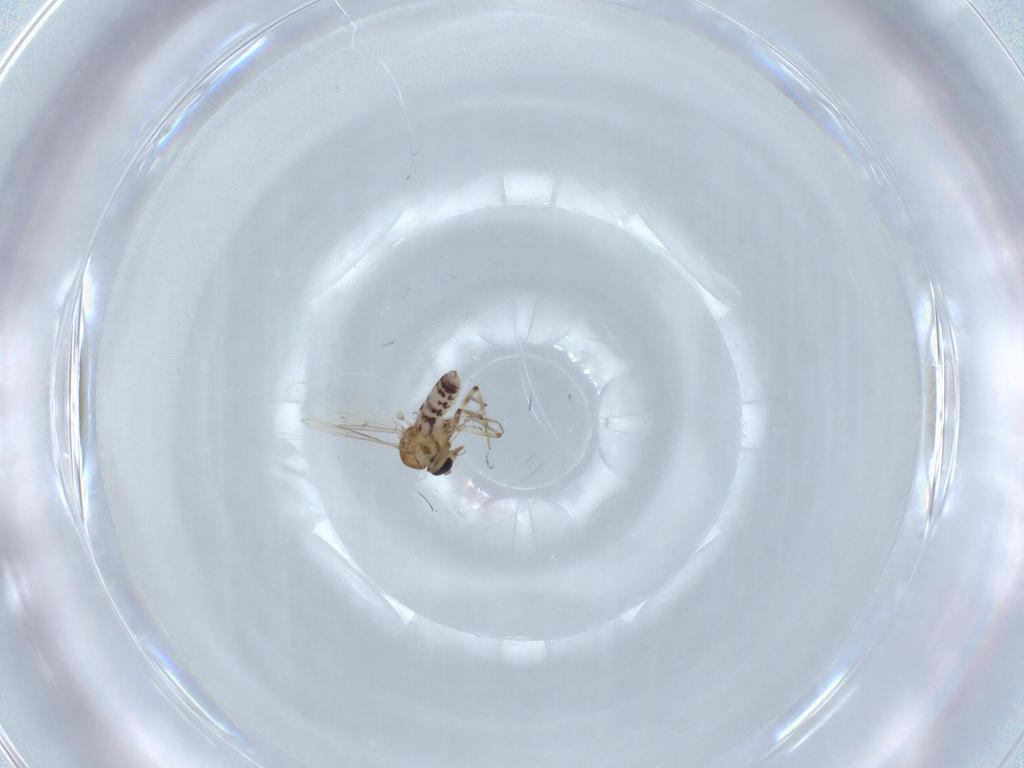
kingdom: Animalia
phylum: Arthropoda
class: Insecta
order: Diptera
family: Ceratopogonidae
